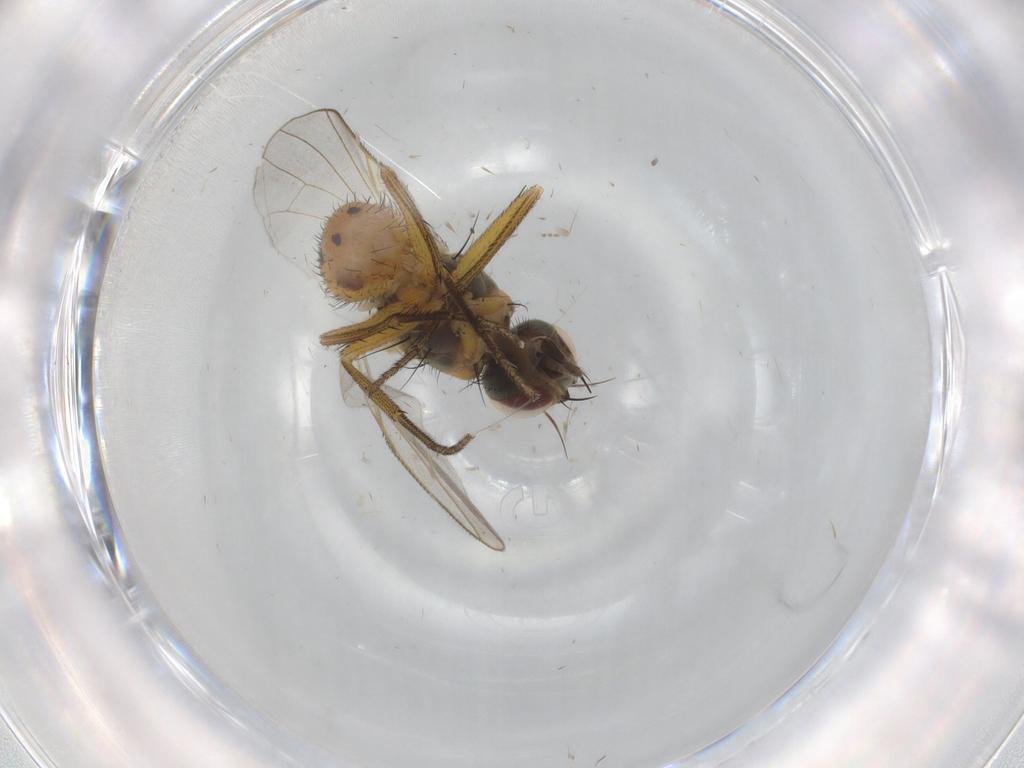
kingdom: Animalia
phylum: Arthropoda
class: Insecta
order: Diptera
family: Muscidae
